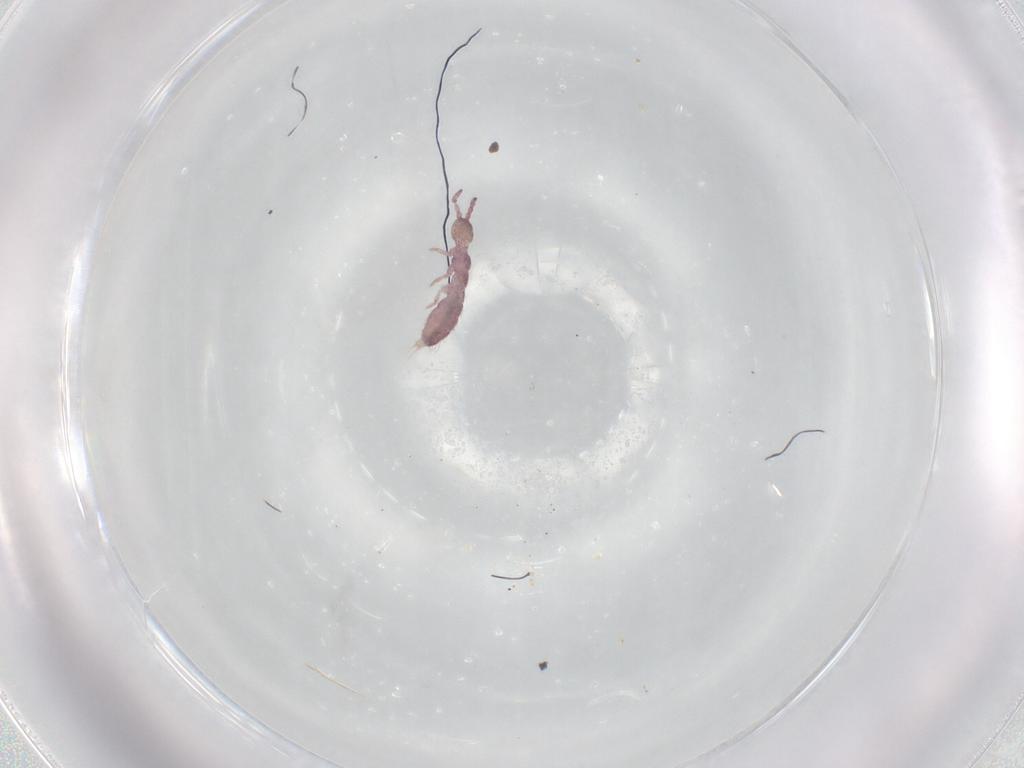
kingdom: Animalia
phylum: Arthropoda
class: Collembola
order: Entomobryomorpha
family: Isotomidae
